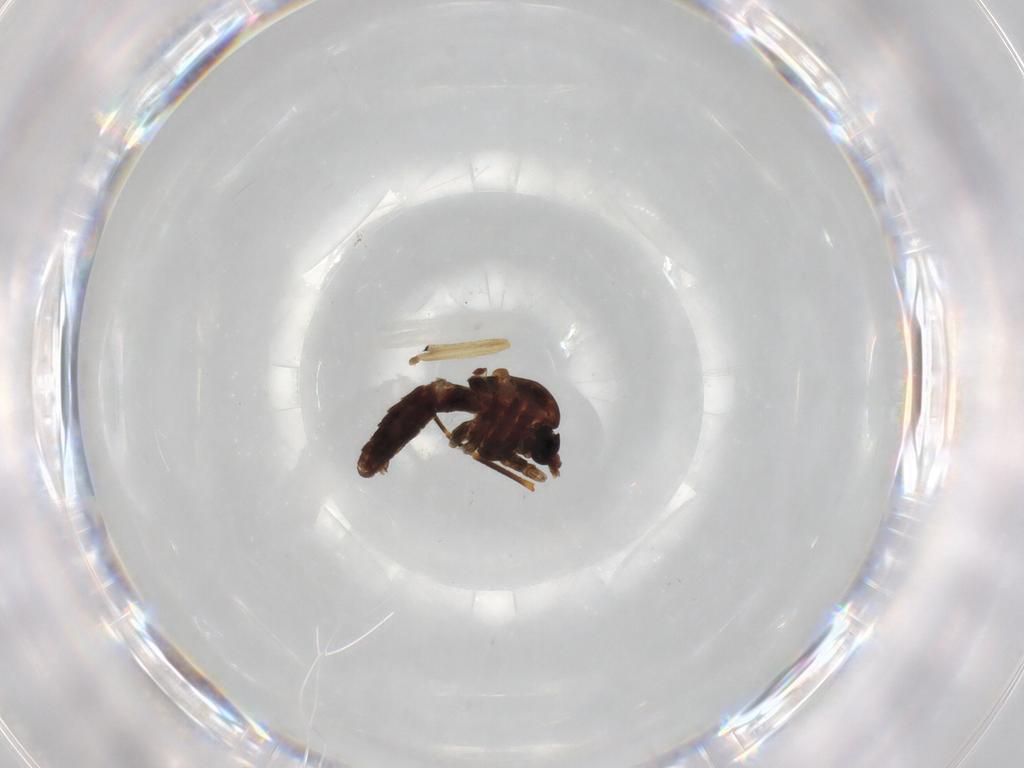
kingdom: Animalia
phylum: Arthropoda
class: Insecta
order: Diptera
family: Chironomidae
